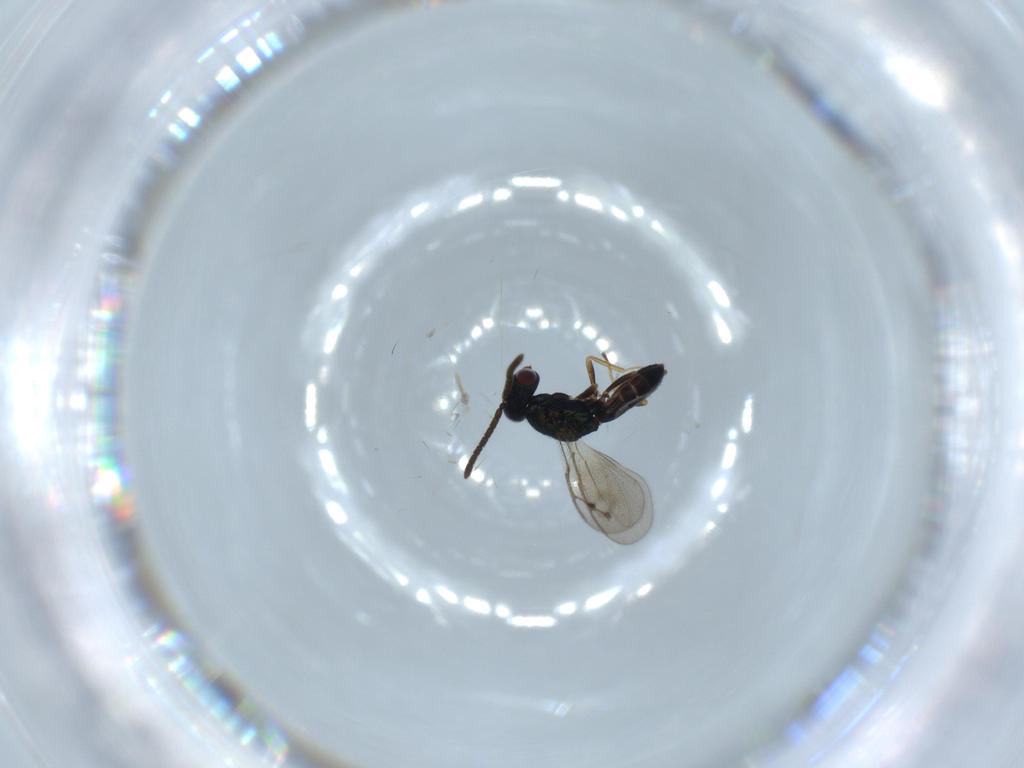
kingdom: Animalia
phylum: Arthropoda
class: Insecta
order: Hymenoptera
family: Pteromalidae
